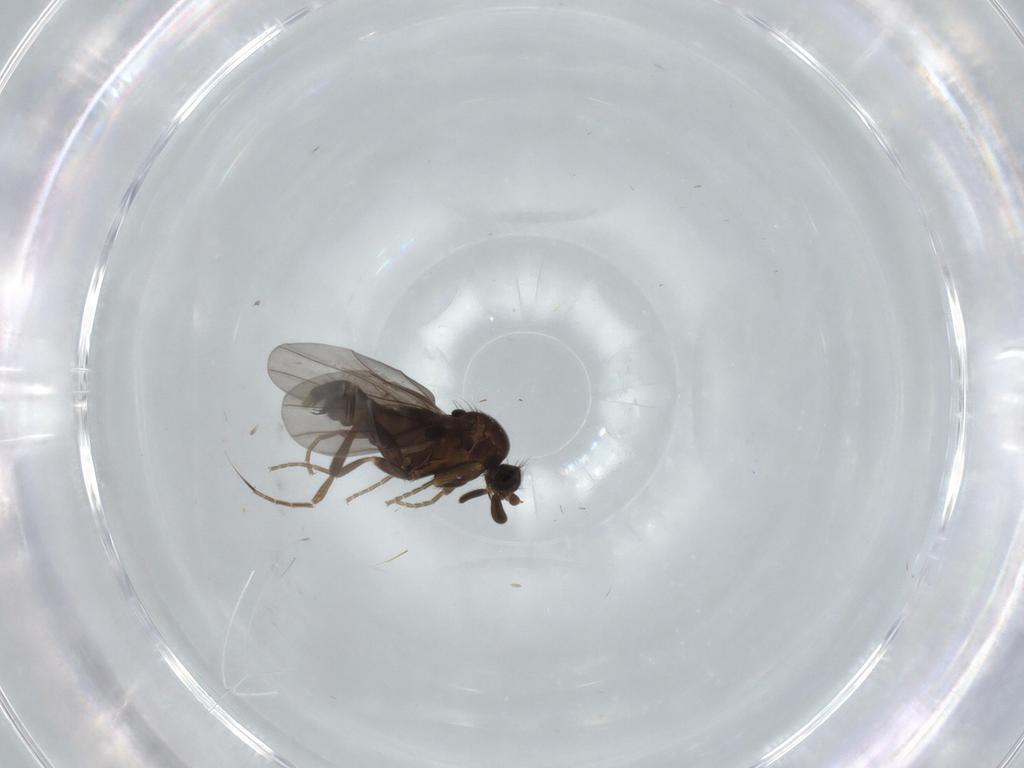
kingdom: Animalia
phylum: Arthropoda
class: Insecta
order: Diptera
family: Phoridae
